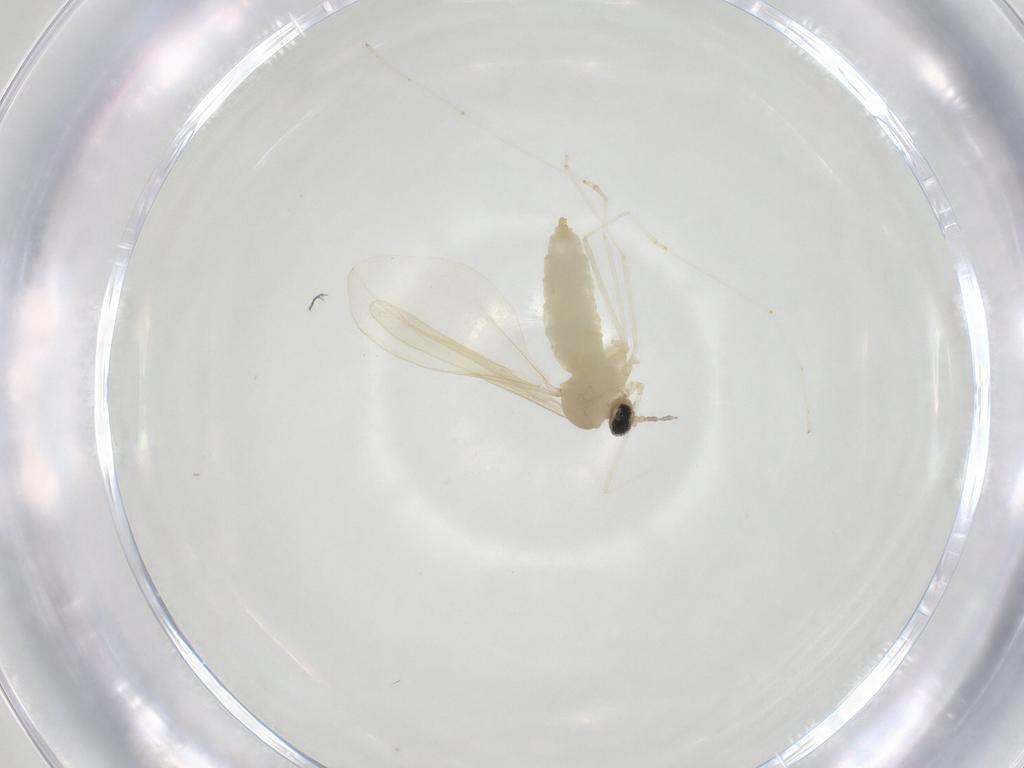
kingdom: Animalia
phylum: Arthropoda
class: Insecta
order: Diptera
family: Cecidomyiidae
